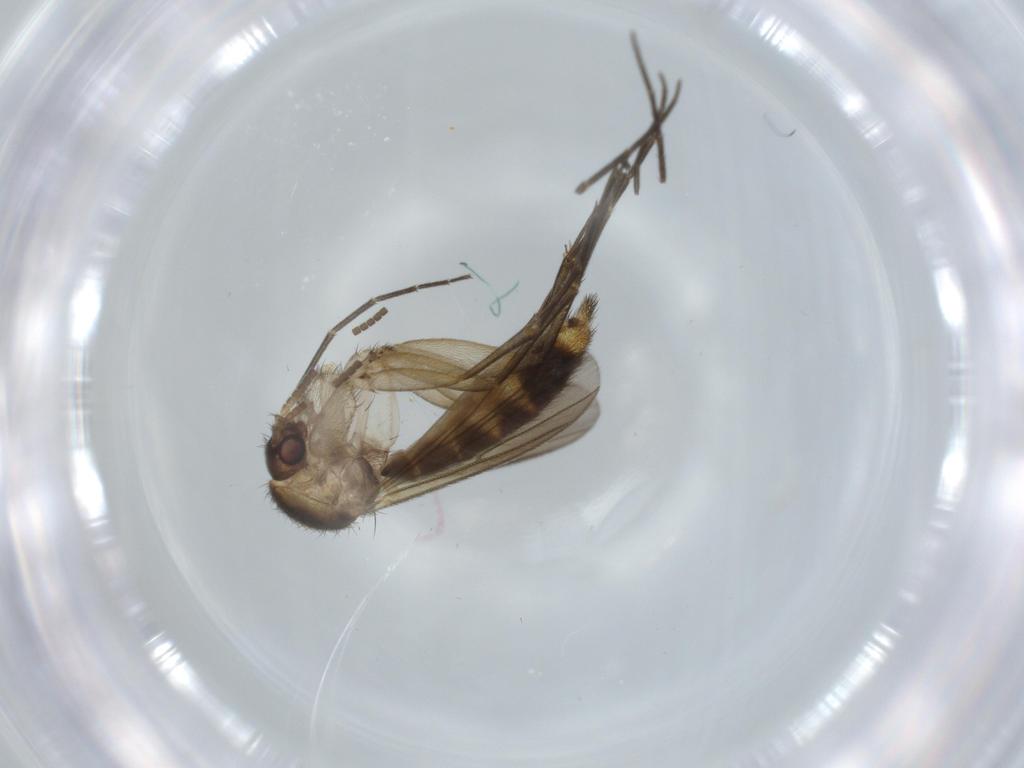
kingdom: Animalia
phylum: Arthropoda
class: Insecta
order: Diptera
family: Mycetophilidae
